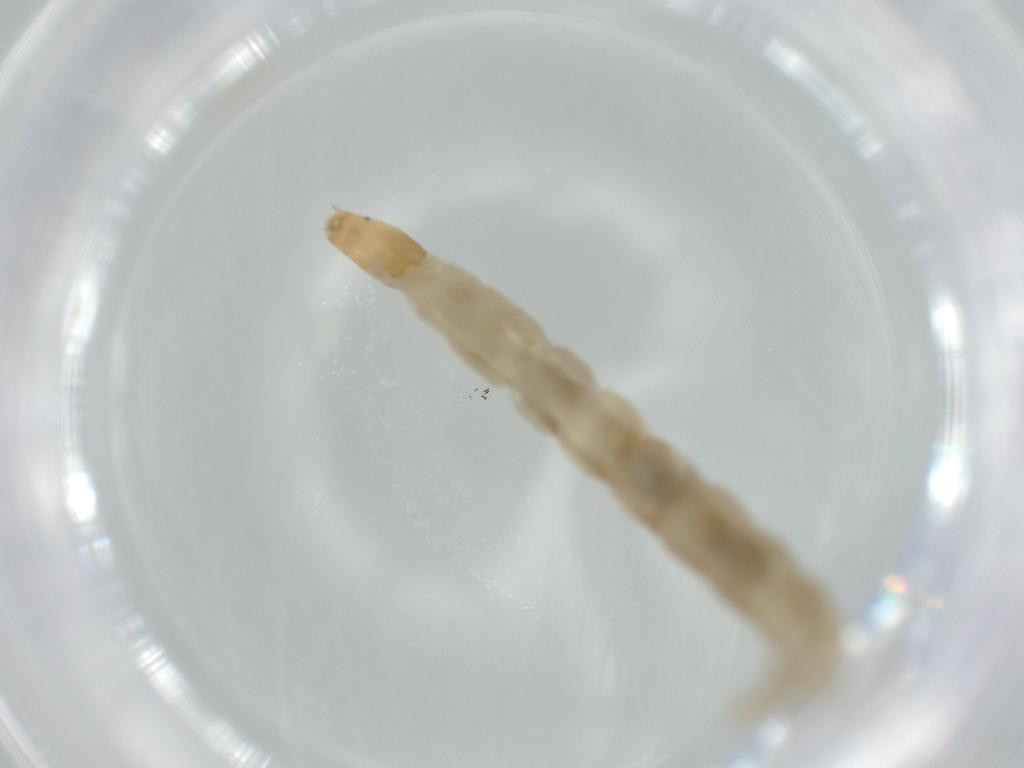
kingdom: Animalia
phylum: Arthropoda
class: Insecta
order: Diptera
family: Chironomidae
